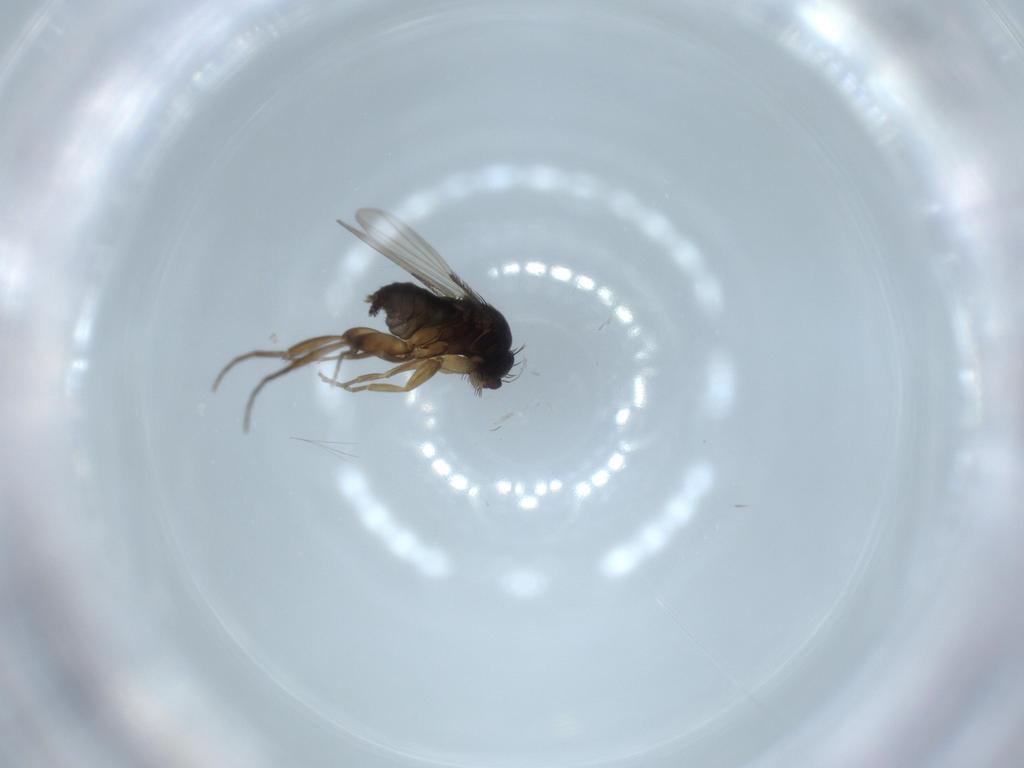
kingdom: Animalia
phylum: Arthropoda
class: Insecta
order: Diptera
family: Phoridae
